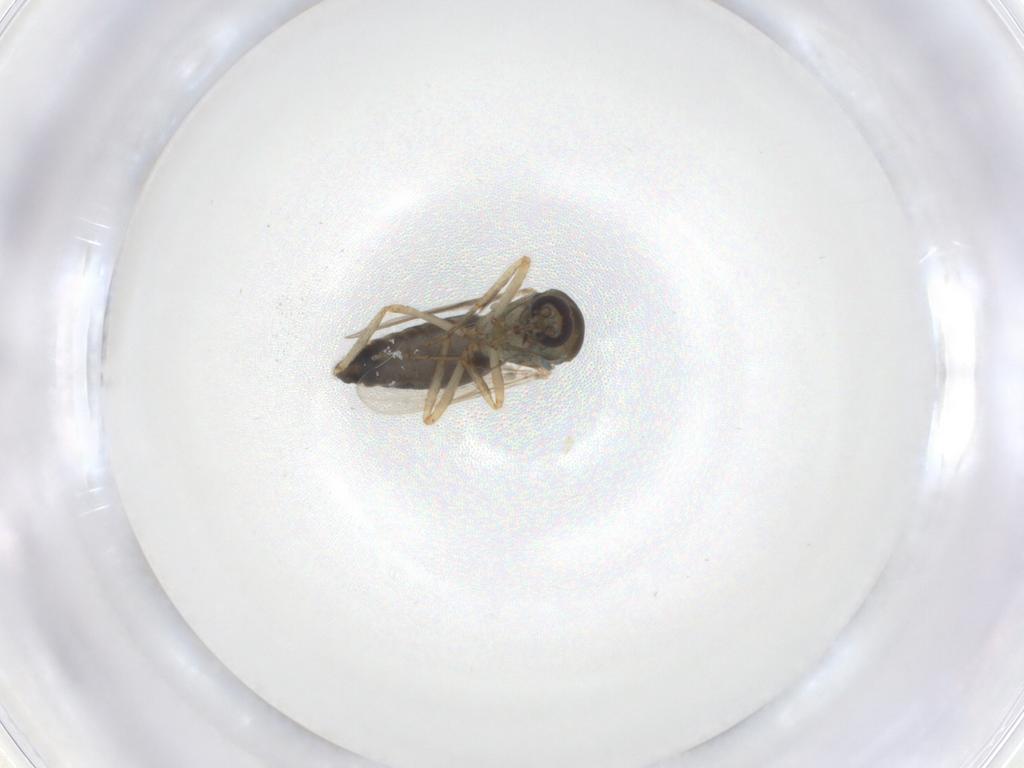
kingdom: Animalia
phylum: Arthropoda
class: Insecta
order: Diptera
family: Ceratopogonidae
